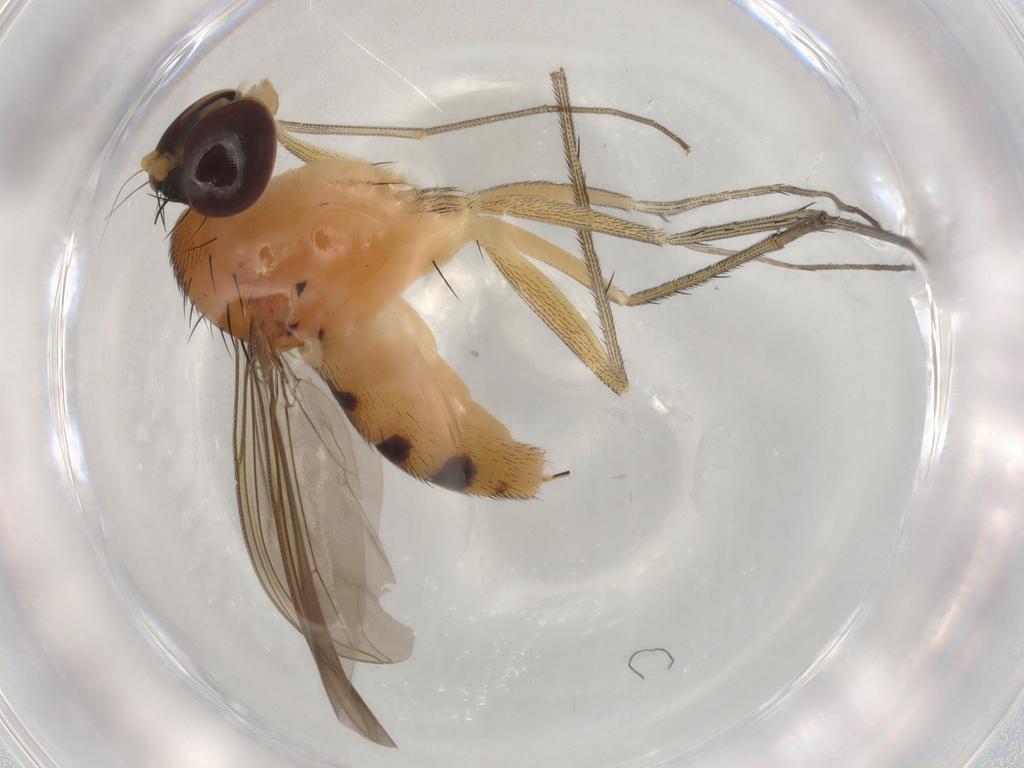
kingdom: Animalia
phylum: Arthropoda
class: Insecta
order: Diptera
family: Dolichopodidae
